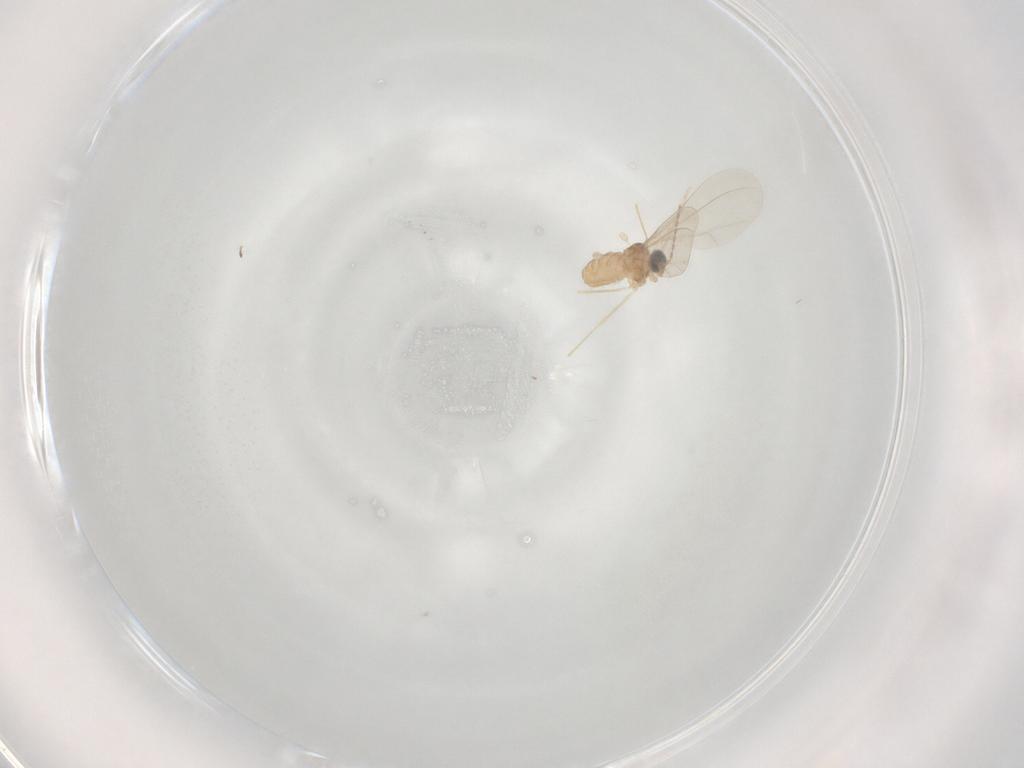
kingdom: Animalia
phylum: Arthropoda
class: Insecta
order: Diptera
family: Cecidomyiidae
